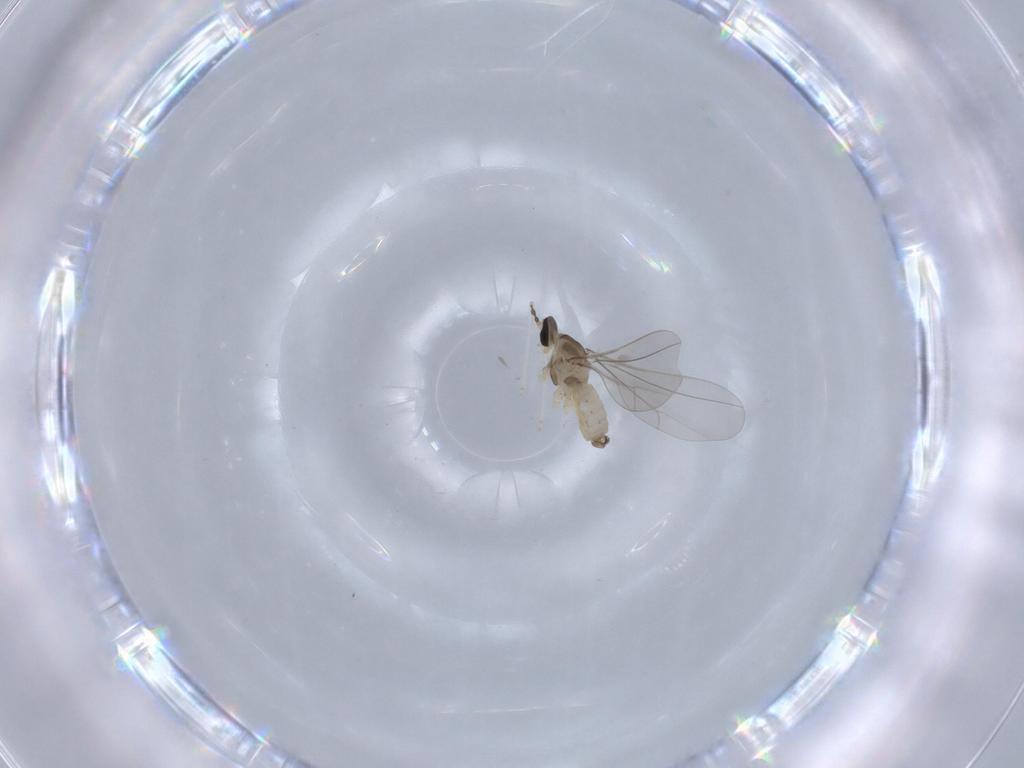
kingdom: Animalia
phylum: Arthropoda
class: Insecta
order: Diptera
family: Cecidomyiidae
